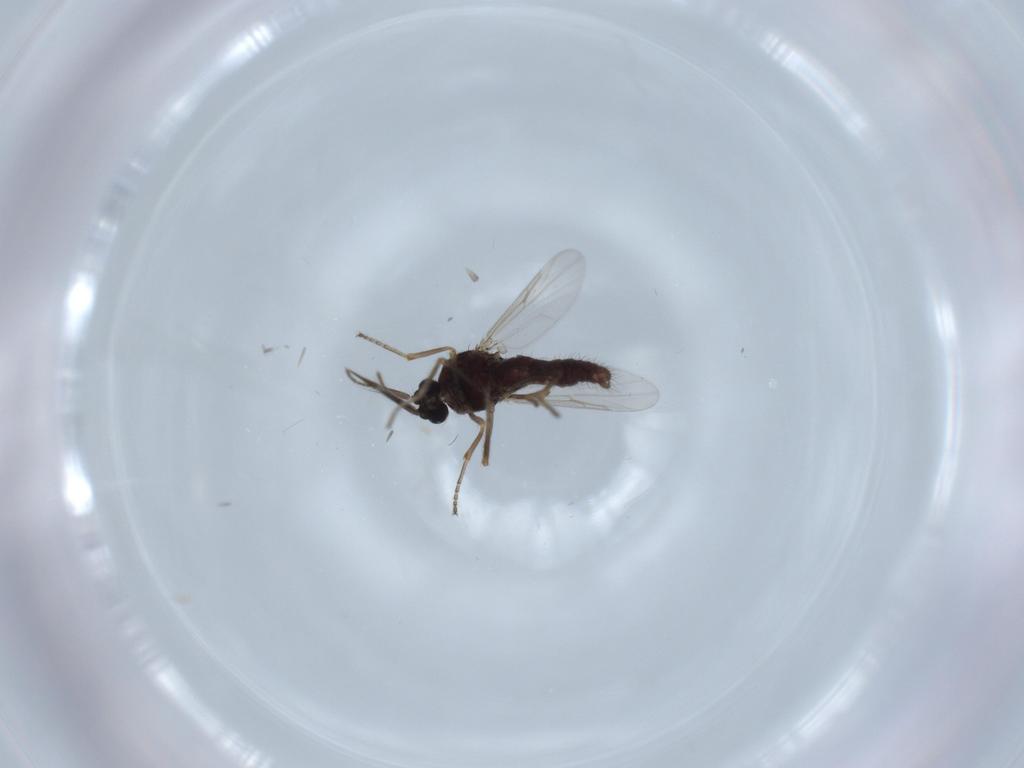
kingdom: Animalia
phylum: Arthropoda
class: Insecta
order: Diptera
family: Ceratopogonidae
